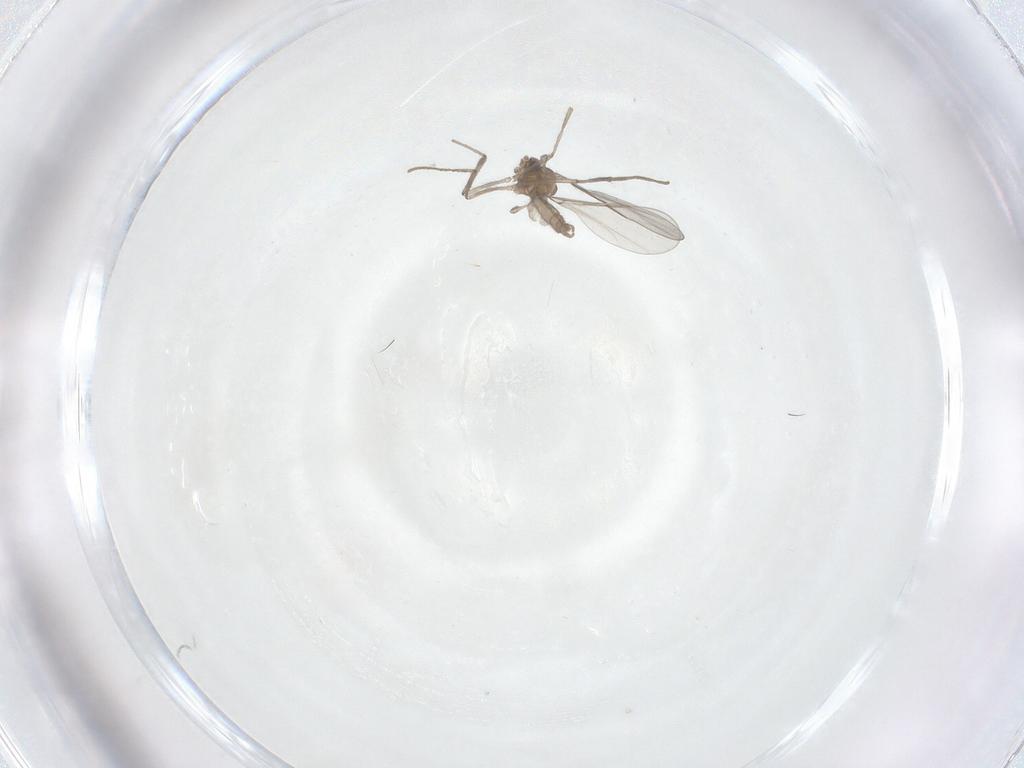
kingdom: Animalia
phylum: Arthropoda
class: Insecta
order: Diptera
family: Cecidomyiidae
